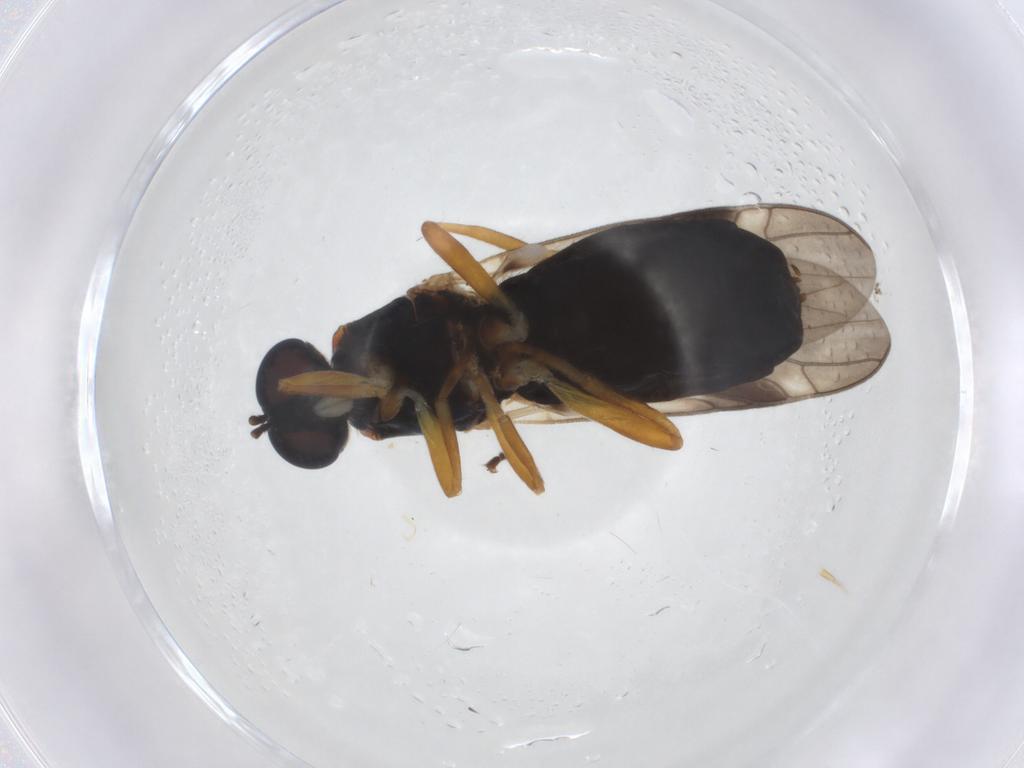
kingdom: Animalia
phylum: Arthropoda
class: Insecta
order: Diptera
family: Stratiomyidae
